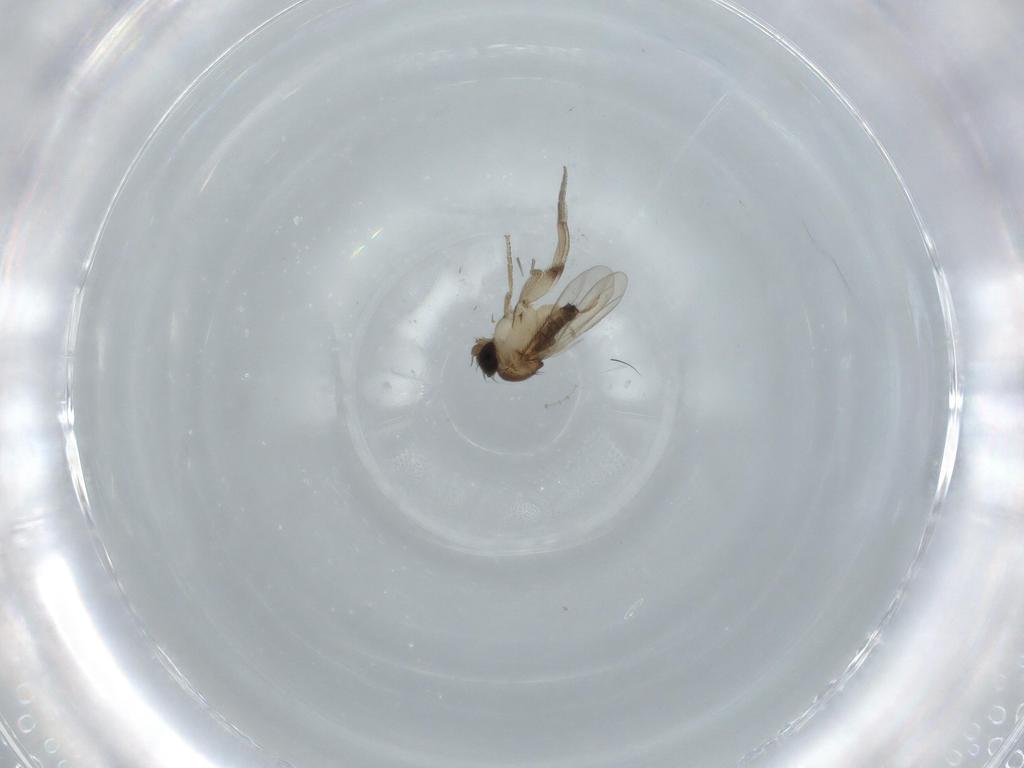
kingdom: Animalia
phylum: Arthropoda
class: Insecta
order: Diptera
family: Phoridae
